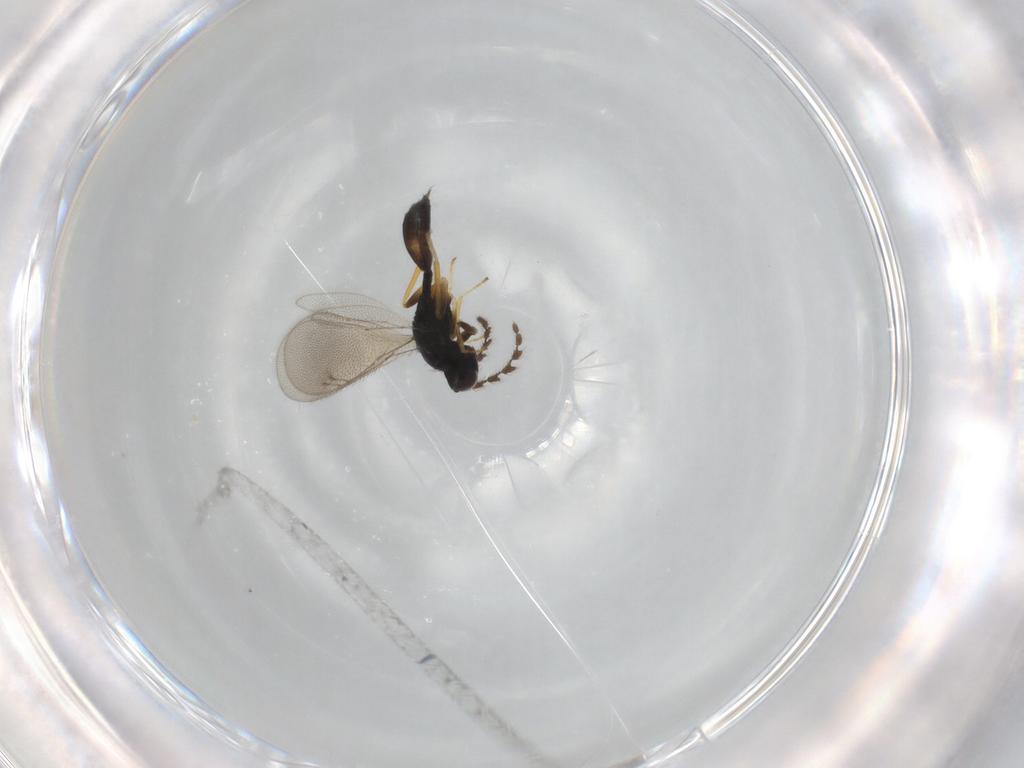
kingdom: Animalia
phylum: Arthropoda
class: Insecta
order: Hymenoptera
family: Eulophidae
